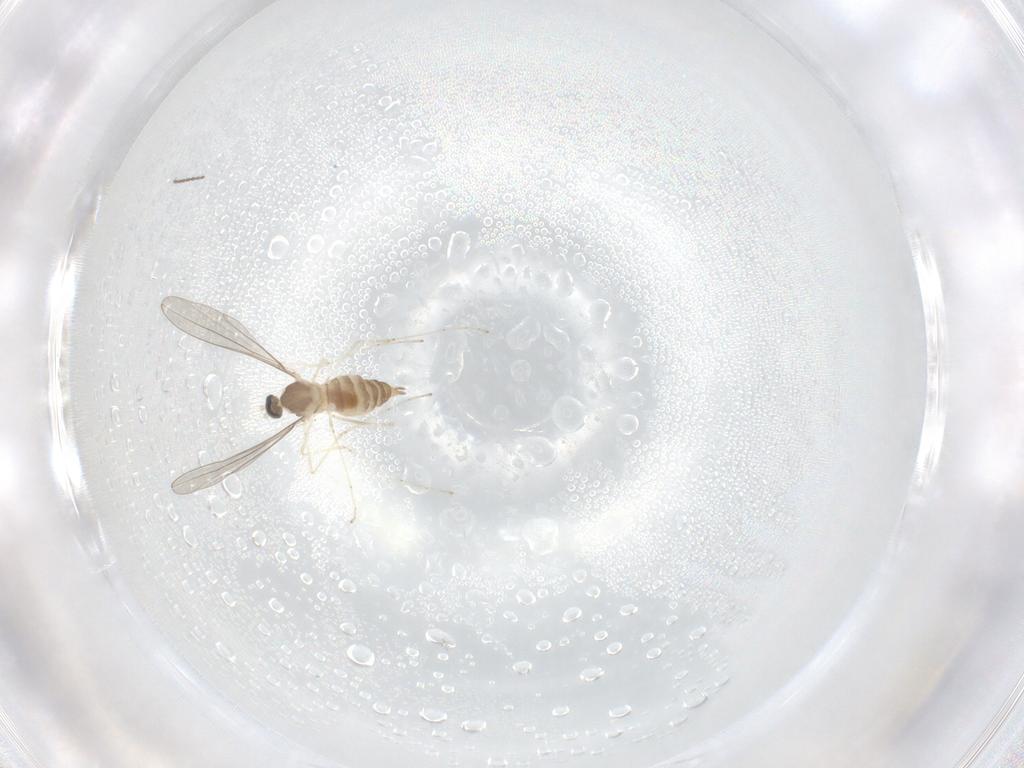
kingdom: Animalia
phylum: Arthropoda
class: Insecta
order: Diptera
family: Cecidomyiidae
